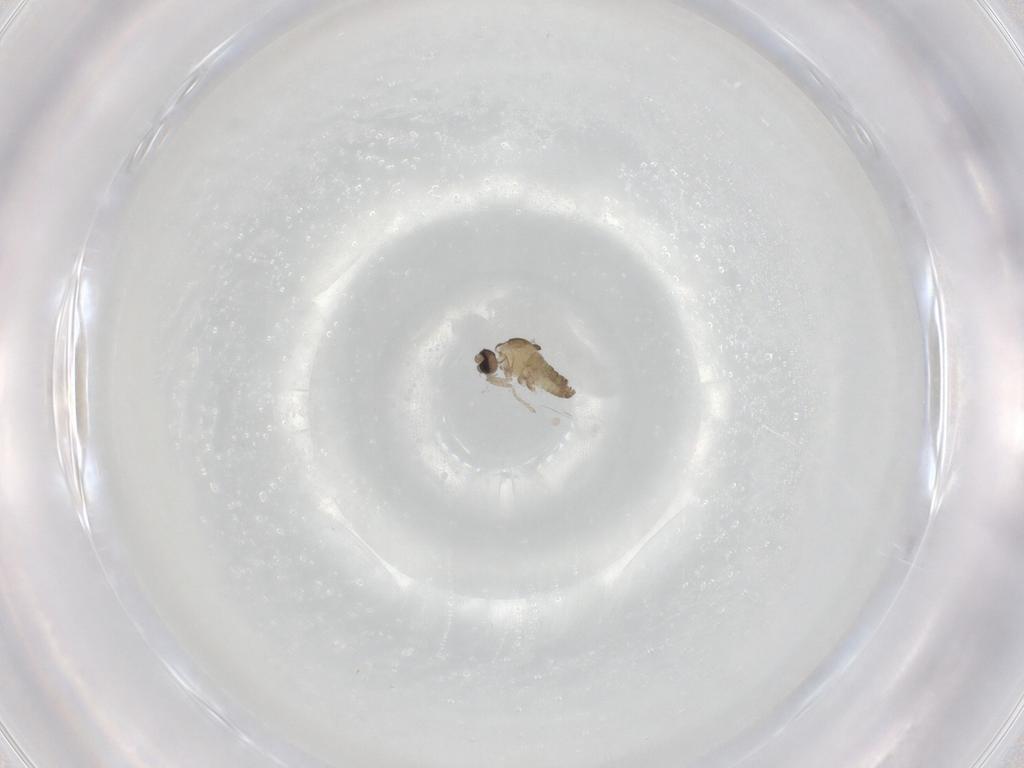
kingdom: Animalia
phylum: Arthropoda
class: Insecta
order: Diptera
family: Cecidomyiidae
